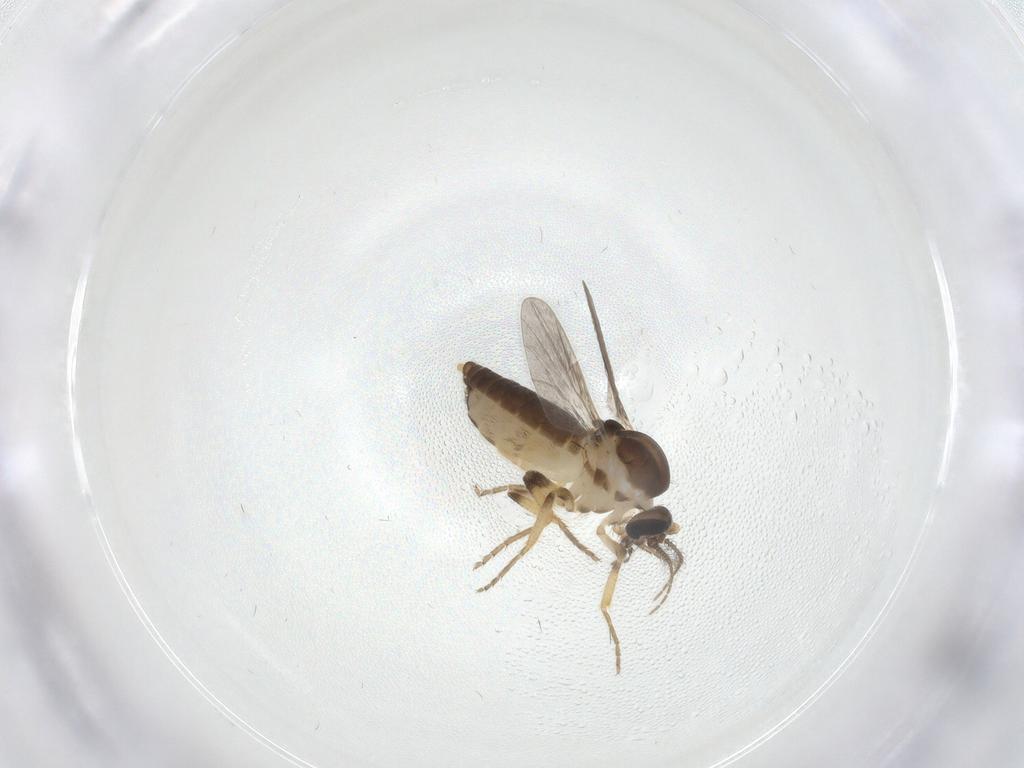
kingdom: Animalia
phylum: Arthropoda
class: Insecta
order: Diptera
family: Ceratopogonidae
